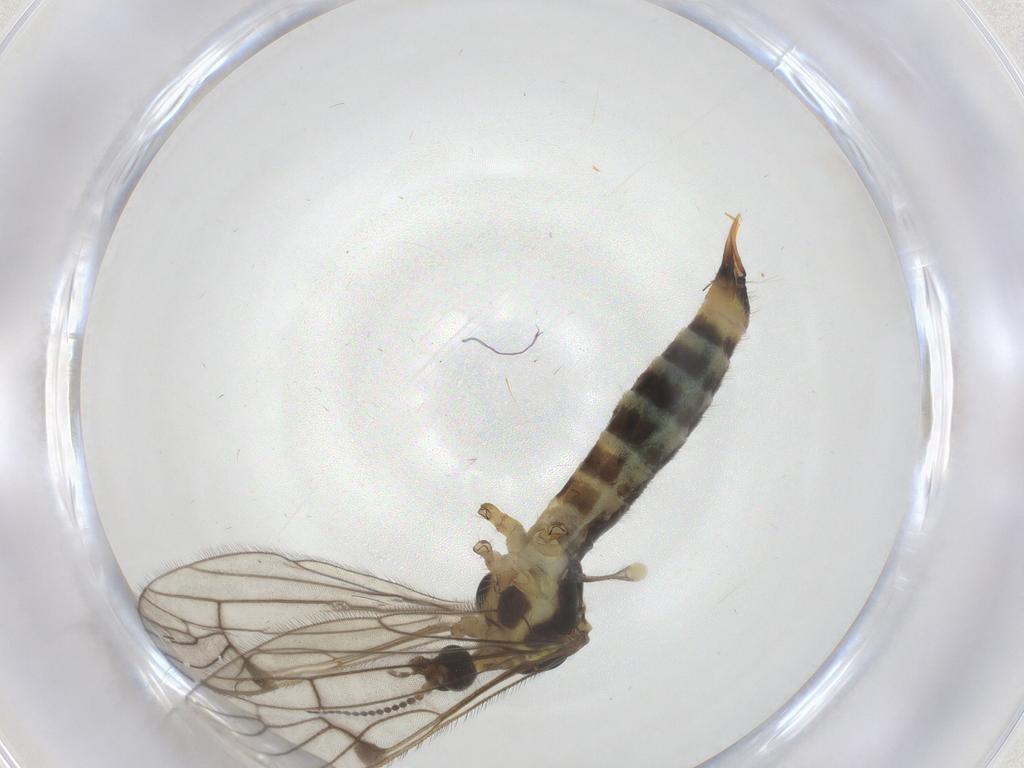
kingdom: Animalia
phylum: Arthropoda
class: Insecta
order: Diptera
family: Limoniidae
